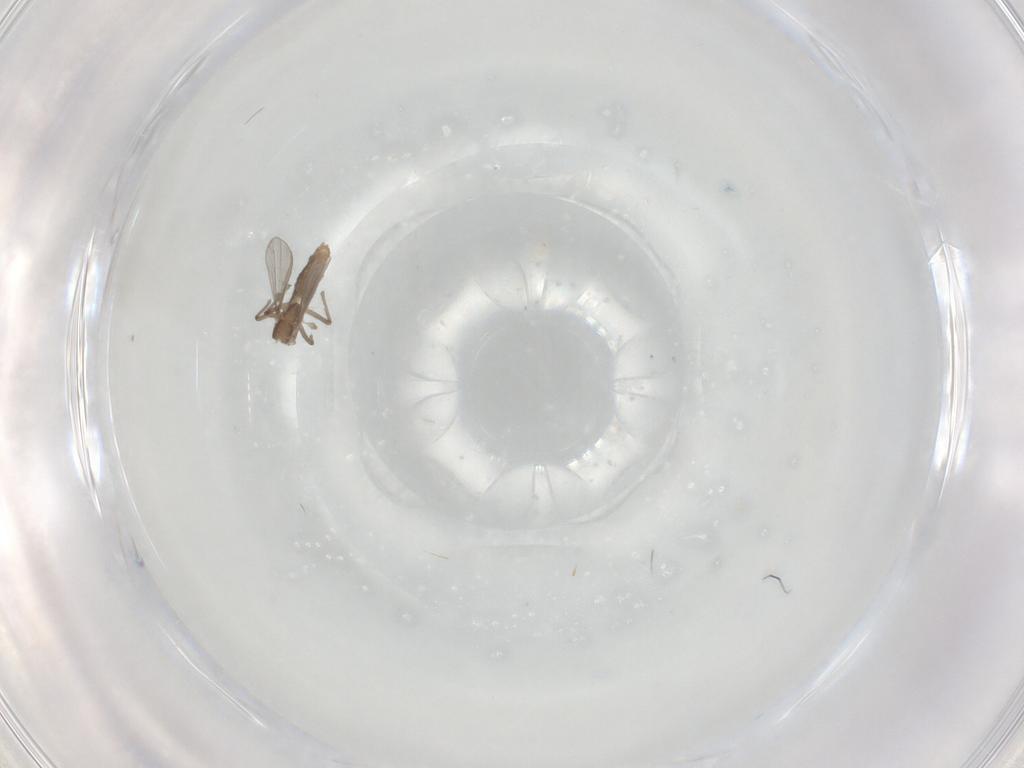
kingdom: Animalia
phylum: Arthropoda
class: Insecta
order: Diptera
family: Chironomidae
